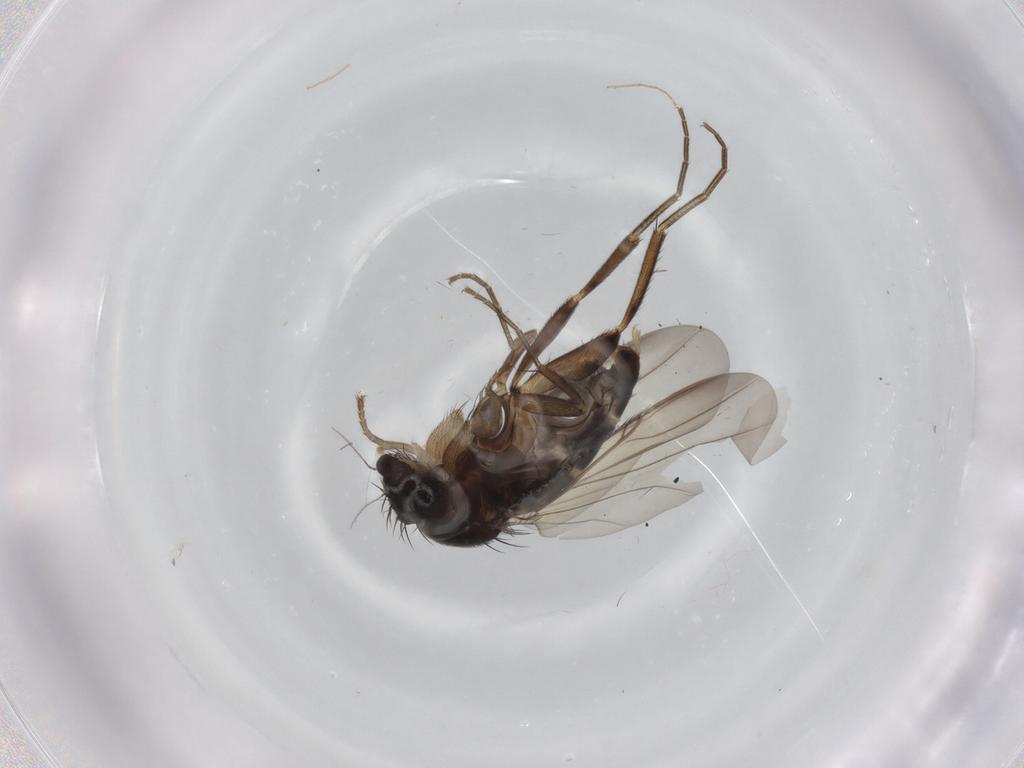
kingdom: Animalia
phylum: Arthropoda
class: Insecta
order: Diptera
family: Phoridae
